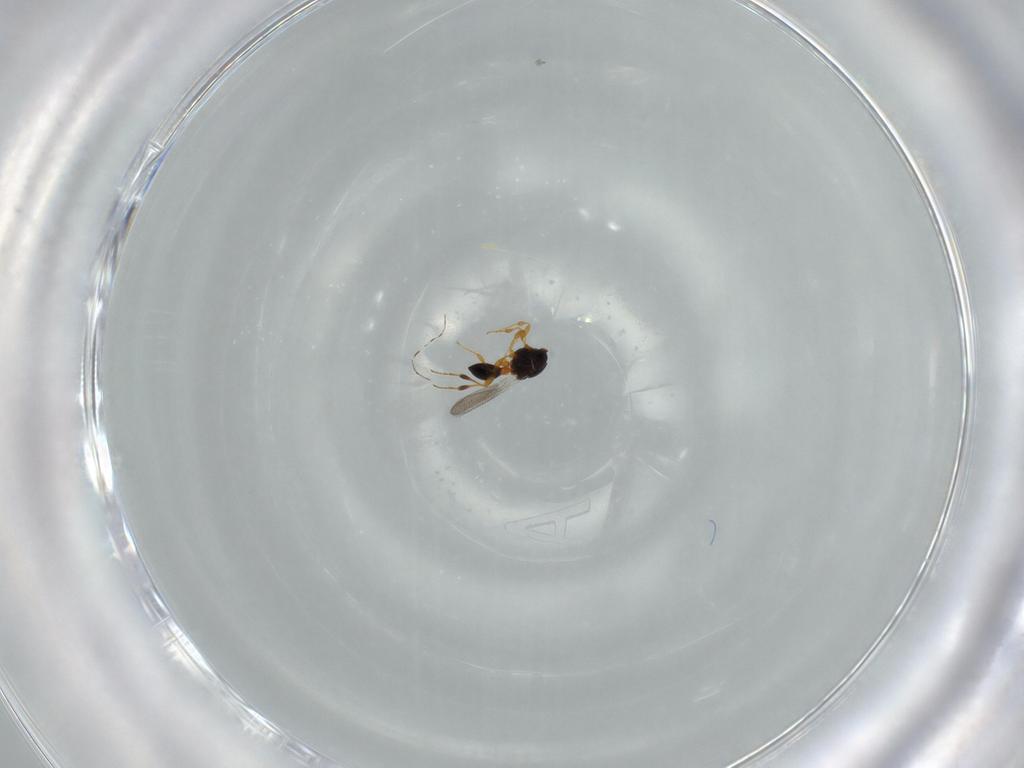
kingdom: Animalia
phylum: Arthropoda
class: Insecta
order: Hymenoptera
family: Platygastridae
